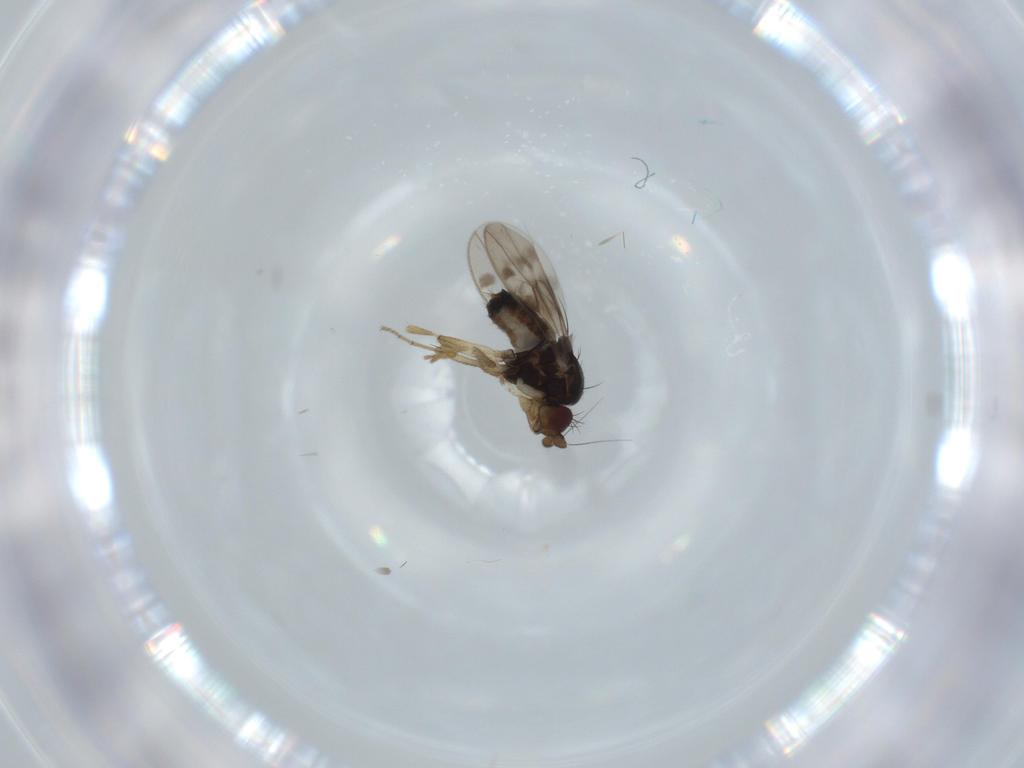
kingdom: Animalia
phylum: Arthropoda
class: Insecta
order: Diptera
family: Sphaeroceridae
